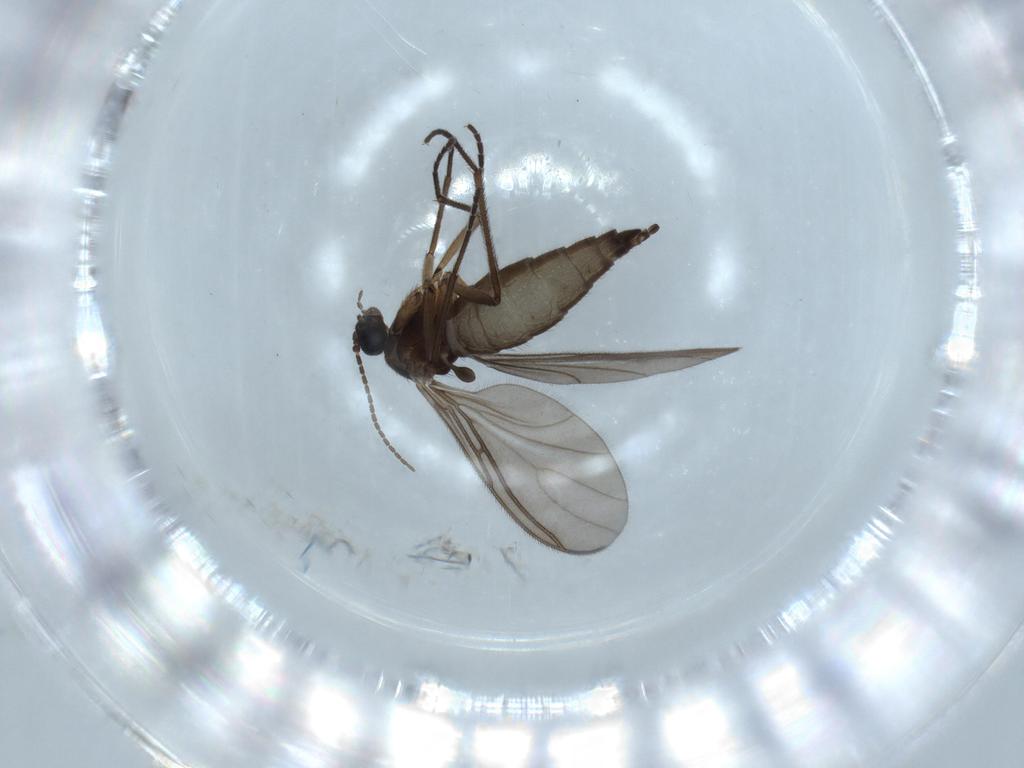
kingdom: Animalia
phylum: Arthropoda
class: Insecta
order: Diptera
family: Sciaridae
